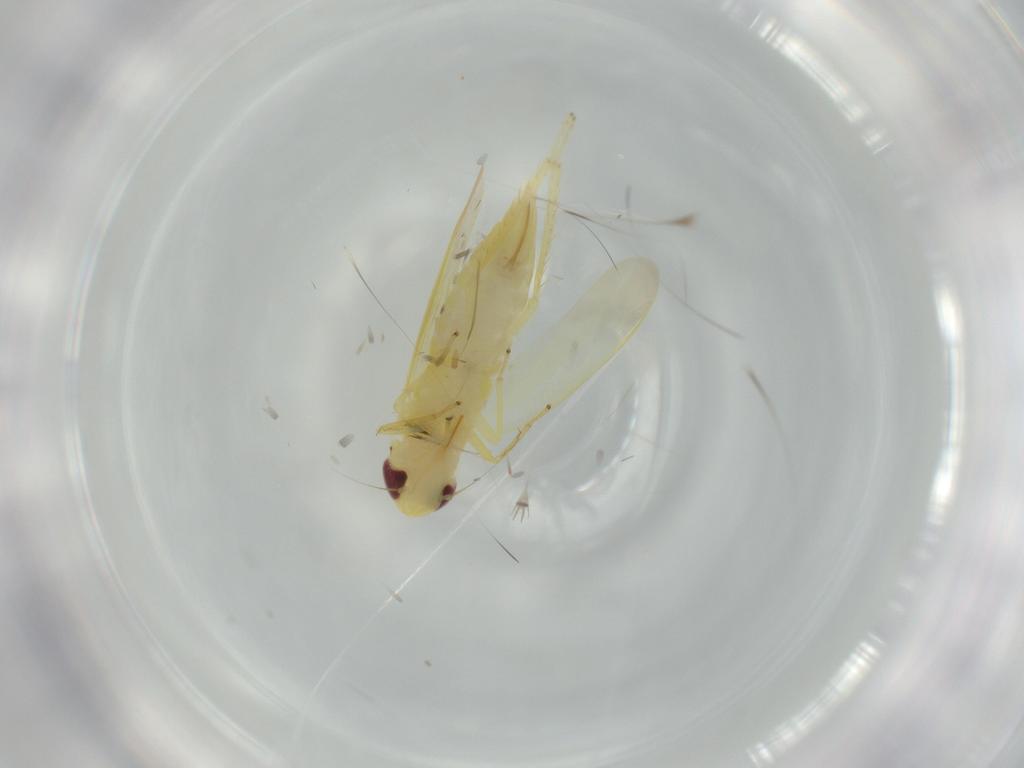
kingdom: Animalia
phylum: Arthropoda
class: Insecta
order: Hemiptera
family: Cicadellidae
